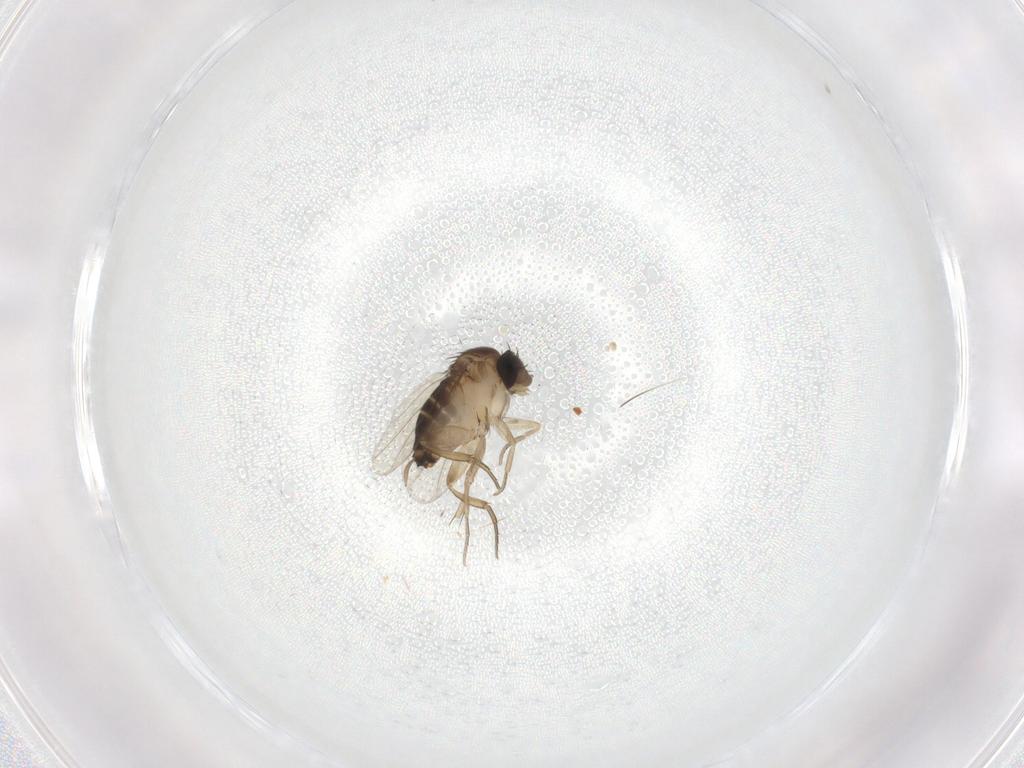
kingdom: Animalia
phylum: Arthropoda
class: Insecta
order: Diptera
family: Phoridae
